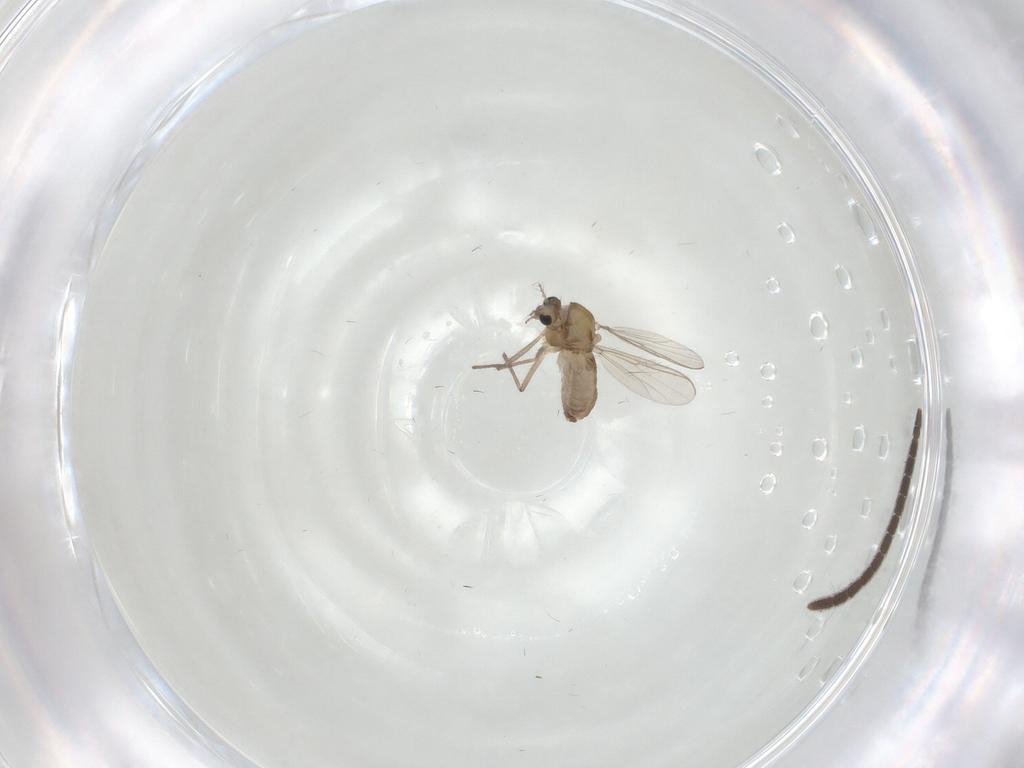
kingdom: Animalia
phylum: Arthropoda
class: Insecta
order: Diptera
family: Chironomidae
